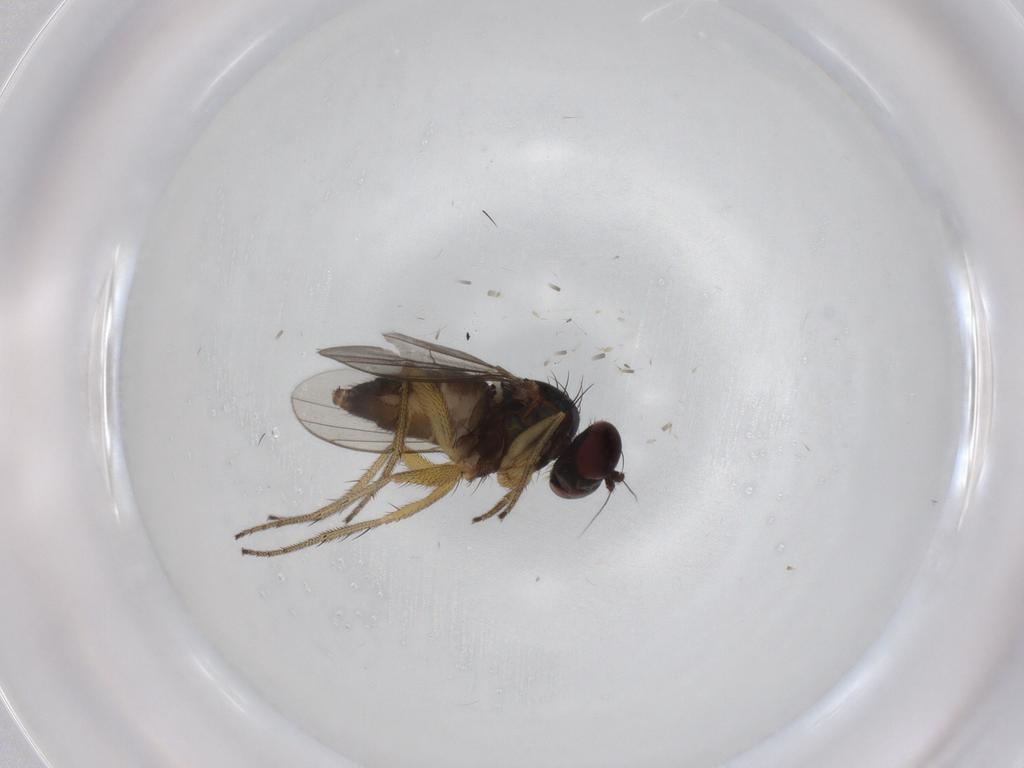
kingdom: Animalia
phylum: Arthropoda
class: Insecta
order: Diptera
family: Dolichopodidae
